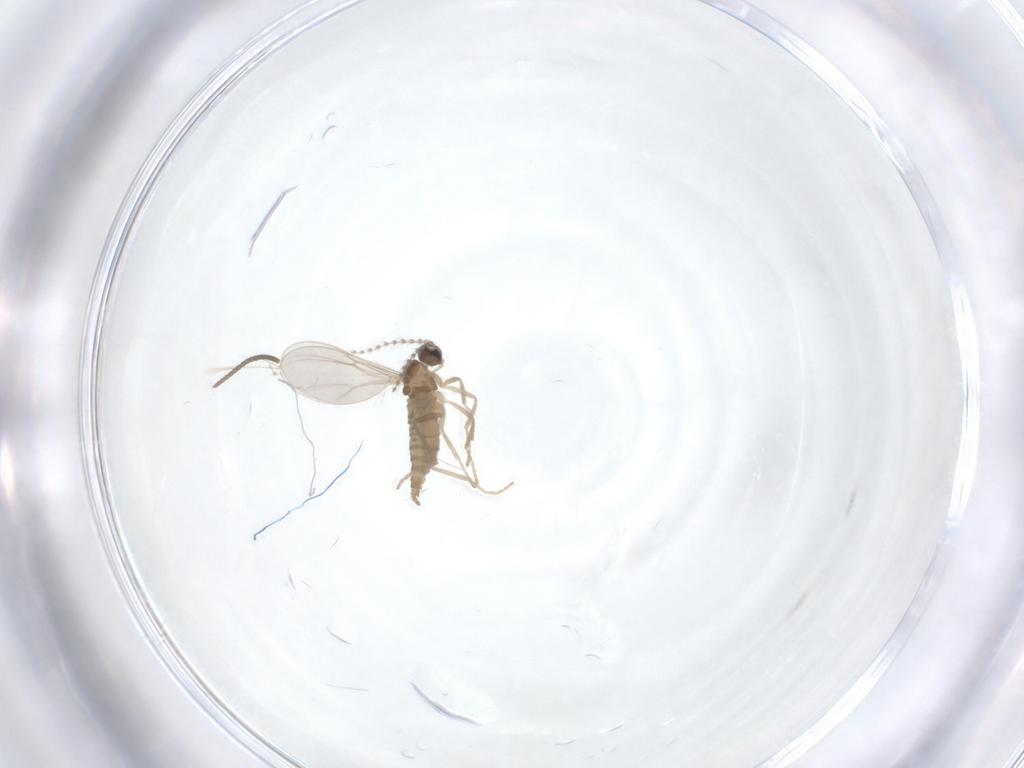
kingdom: Animalia
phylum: Arthropoda
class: Insecta
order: Diptera
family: Cecidomyiidae
